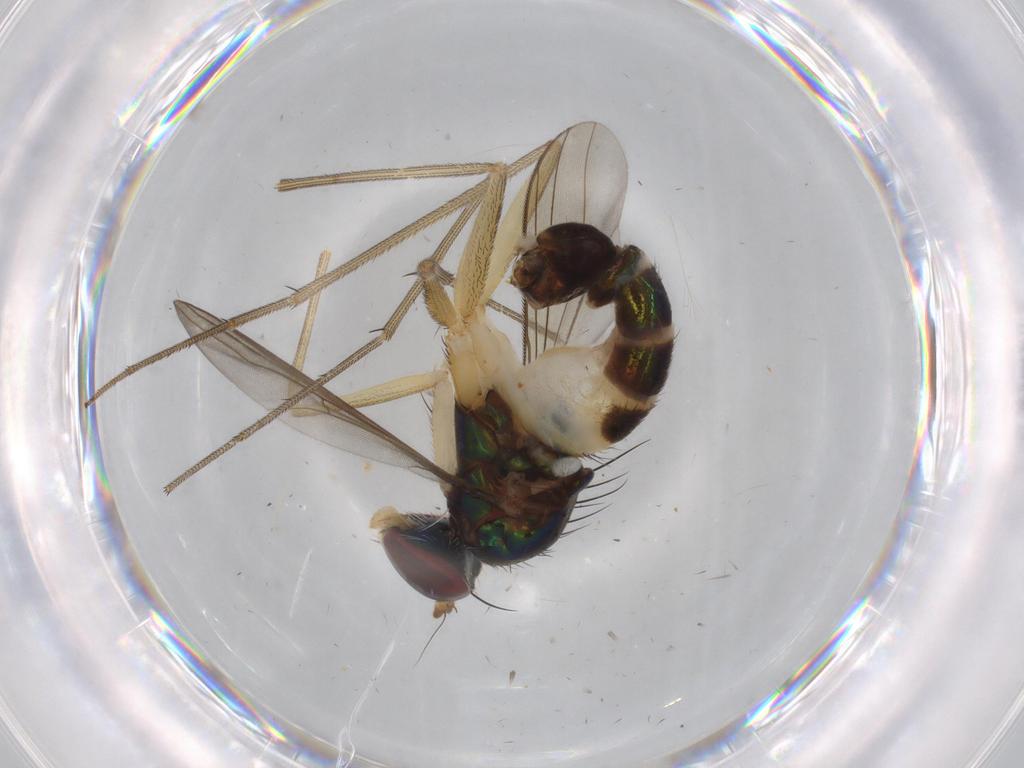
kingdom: Animalia
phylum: Arthropoda
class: Insecta
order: Diptera
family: Dolichopodidae
